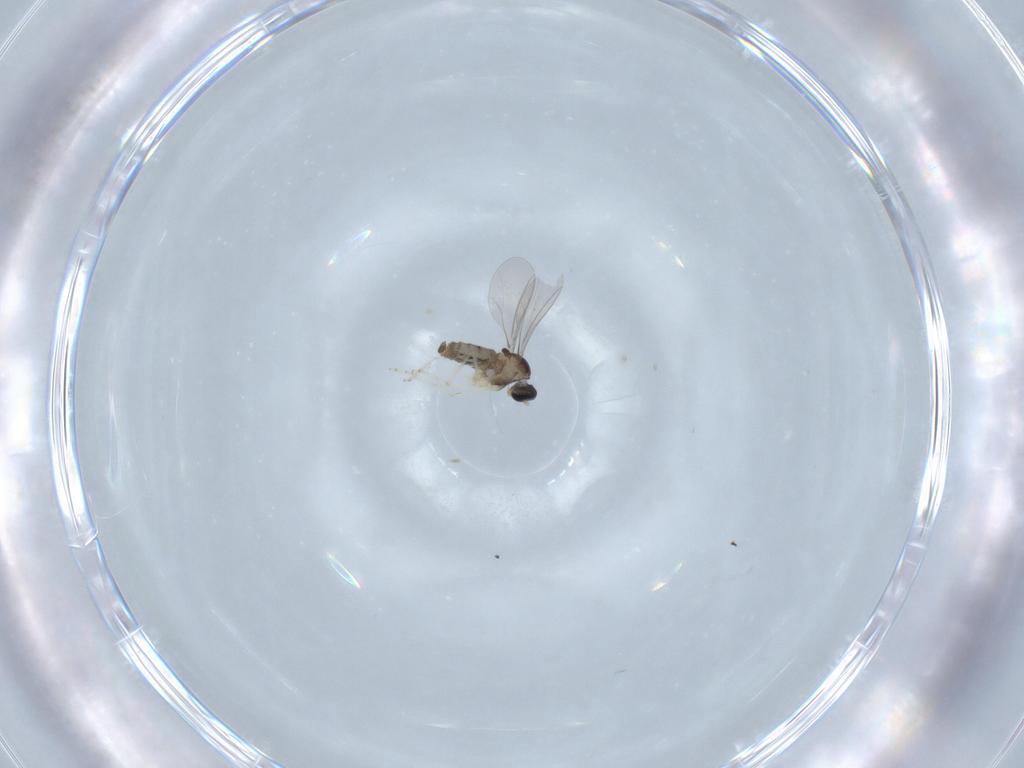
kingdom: Animalia
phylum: Arthropoda
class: Insecta
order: Diptera
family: Cecidomyiidae
